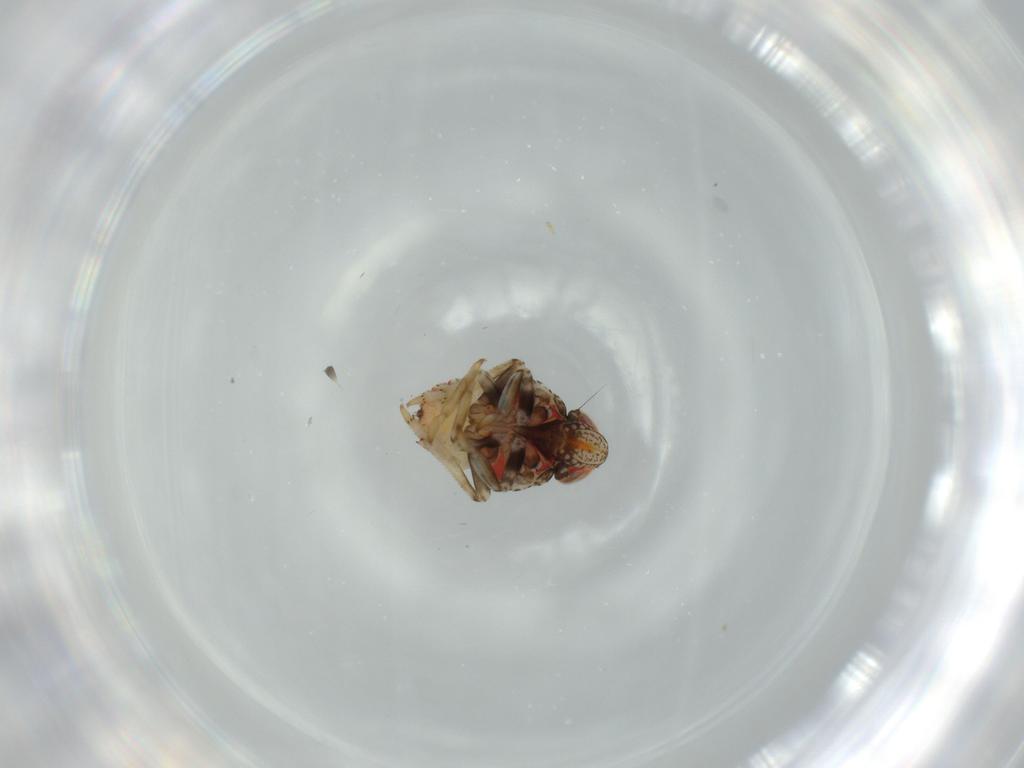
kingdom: Animalia
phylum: Arthropoda
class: Insecta
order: Hemiptera
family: Issidae
